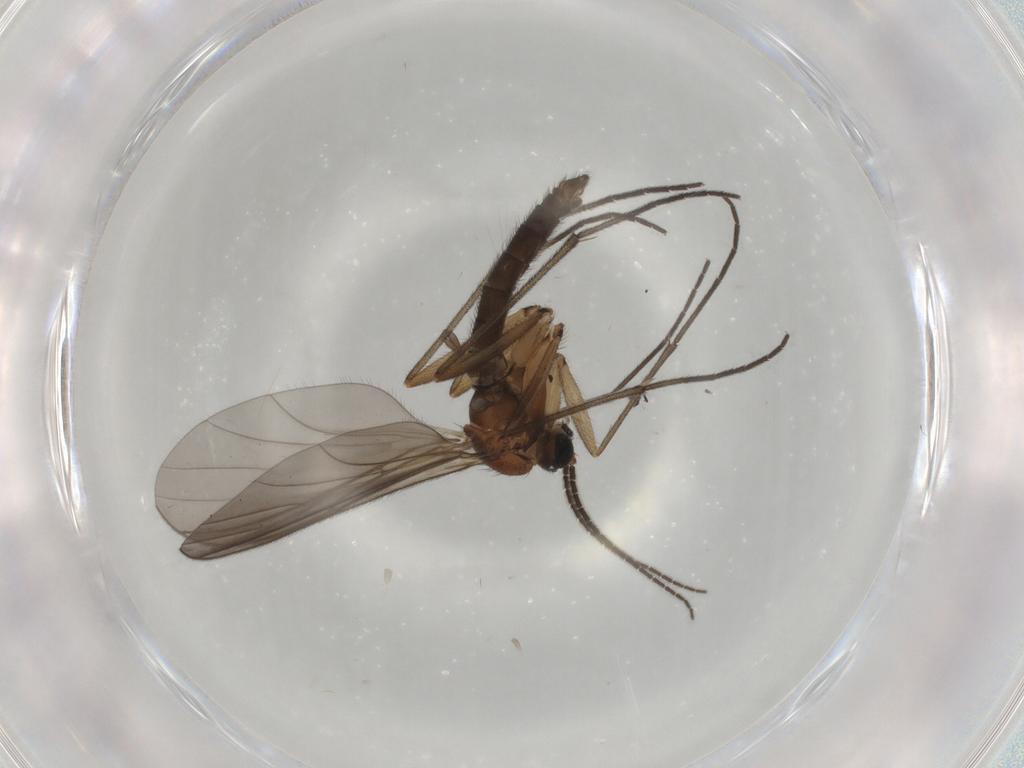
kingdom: Animalia
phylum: Arthropoda
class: Insecta
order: Diptera
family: Sciaridae
